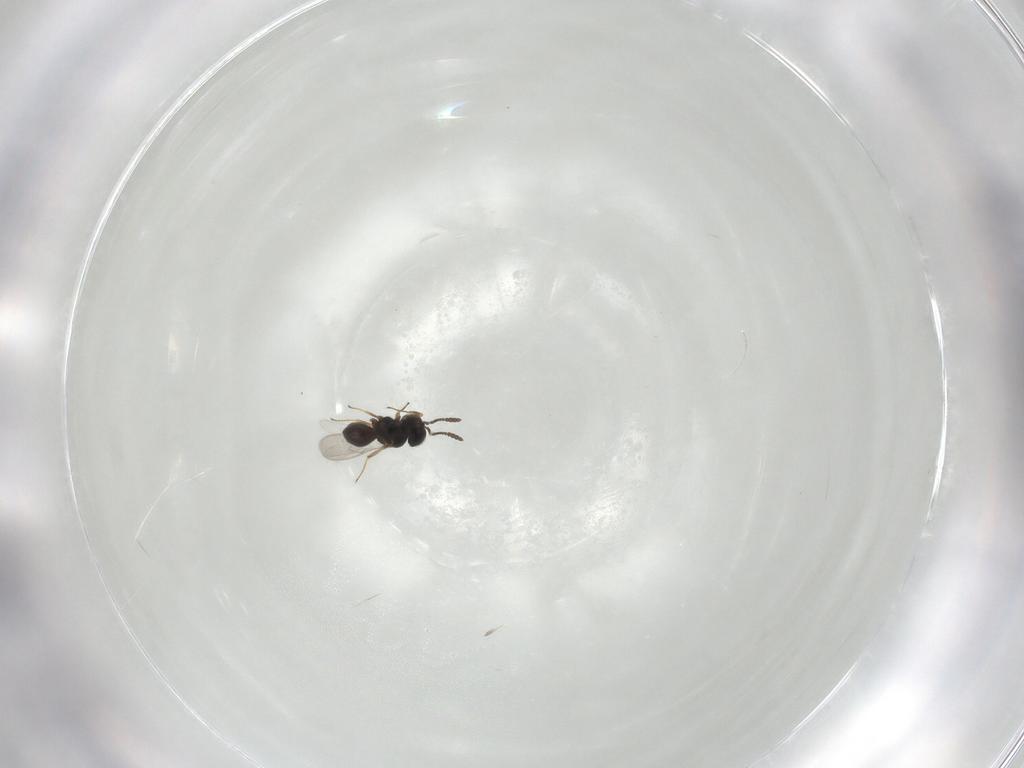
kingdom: Animalia
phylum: Arthropoda
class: Insecta
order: Hymenoptera
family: Scelionidae
